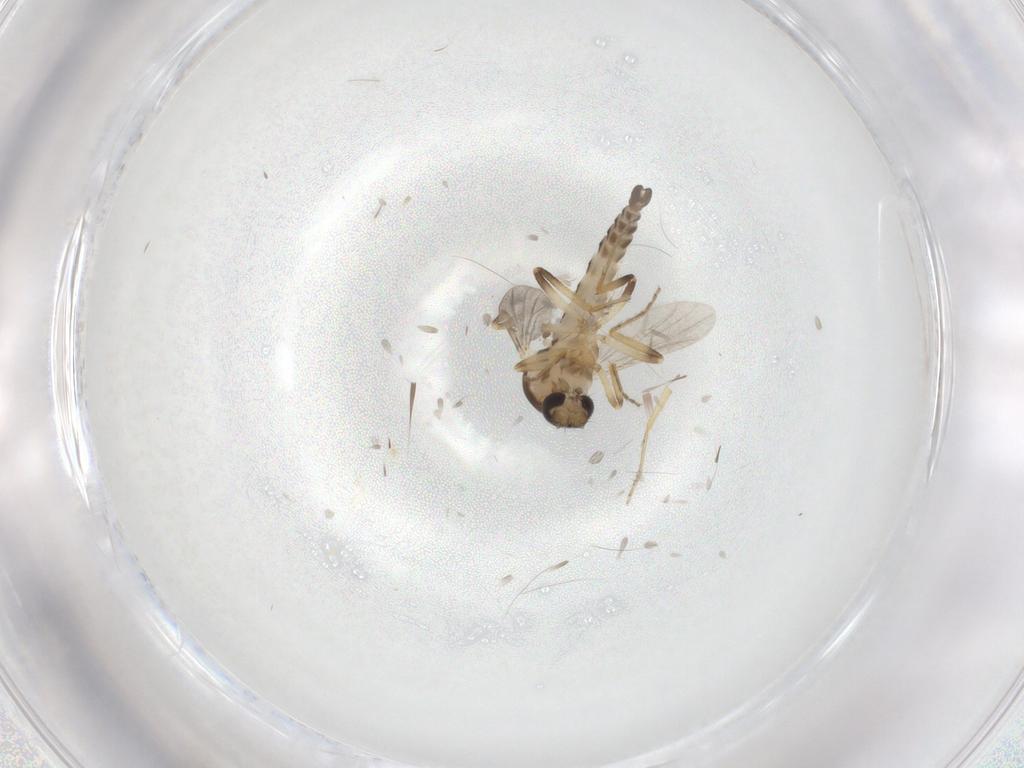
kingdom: Animalia
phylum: Arthropoda
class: Insecta
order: Diptera
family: Ceratopogonidae
